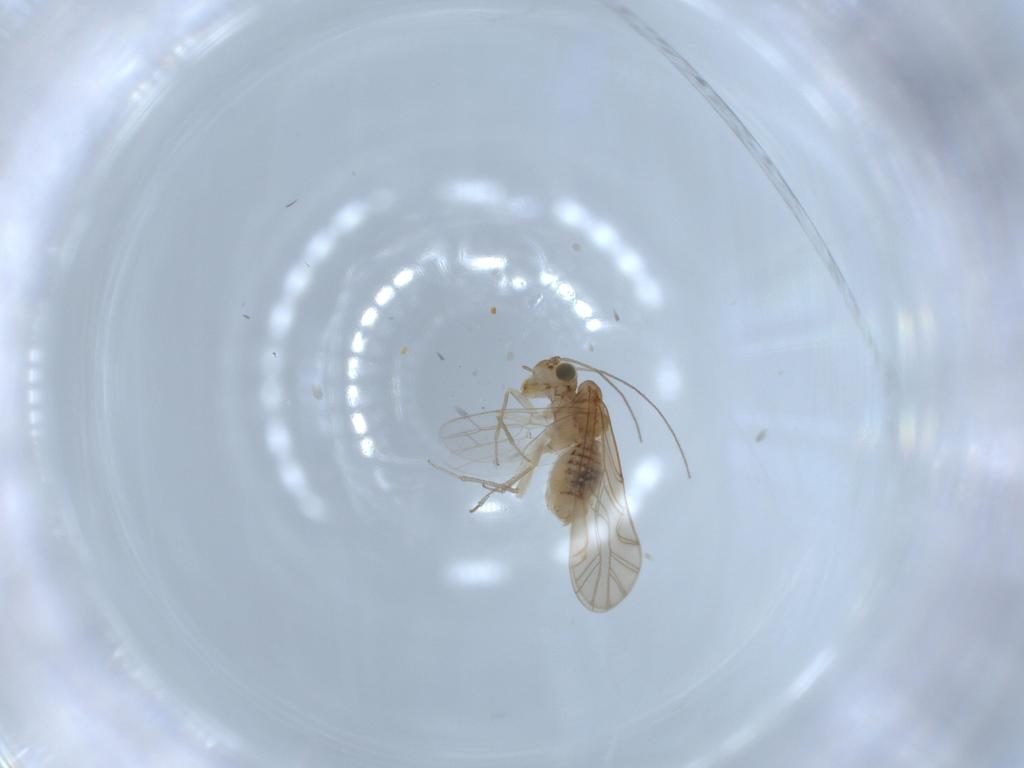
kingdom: Animalia
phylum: Arthropoda
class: Insecta
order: Psocodea
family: Lachesillidae
